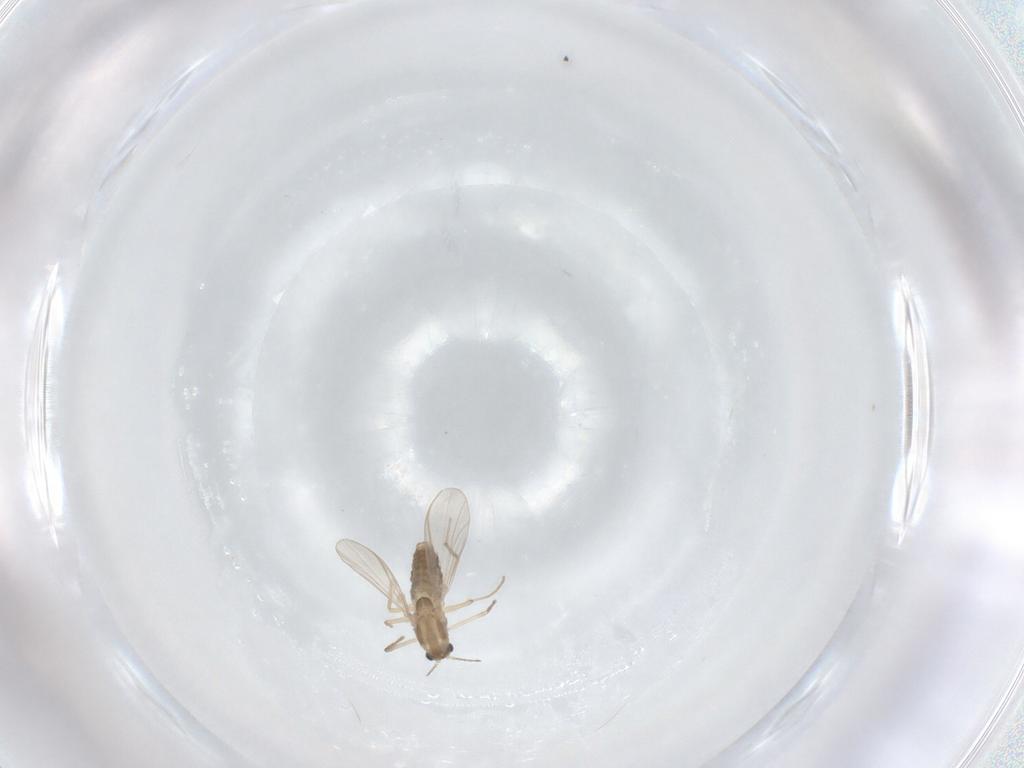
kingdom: Animalia
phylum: Arthropoda
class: Insecta
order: Diptera
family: Chironomidae
